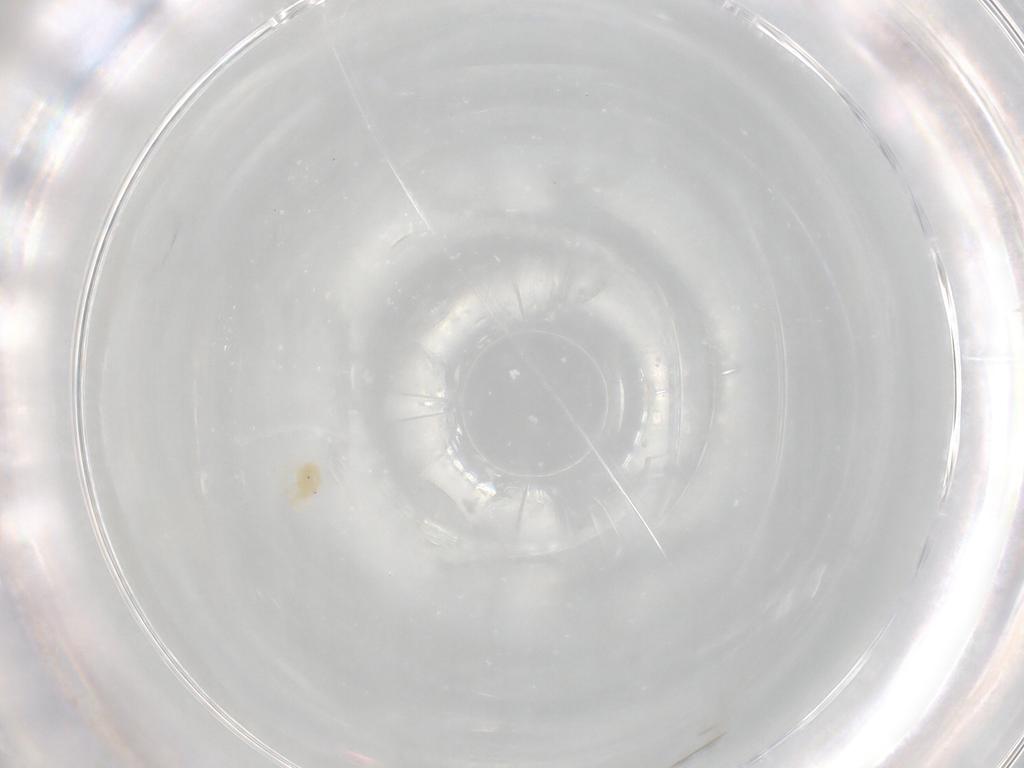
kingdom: Animalia
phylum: Arthropoda
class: Arachnida
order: Trombidiformes
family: Anystidae
